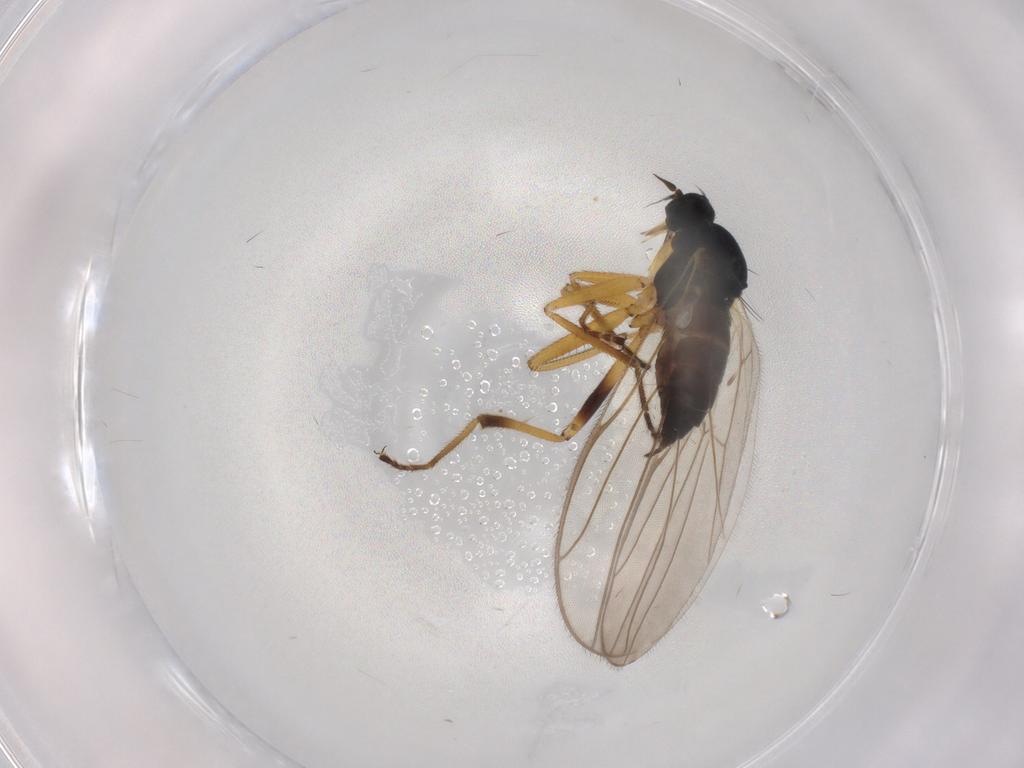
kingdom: Animalia
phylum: Arthropoda
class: Insecta
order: Diptera
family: Hybotidae
